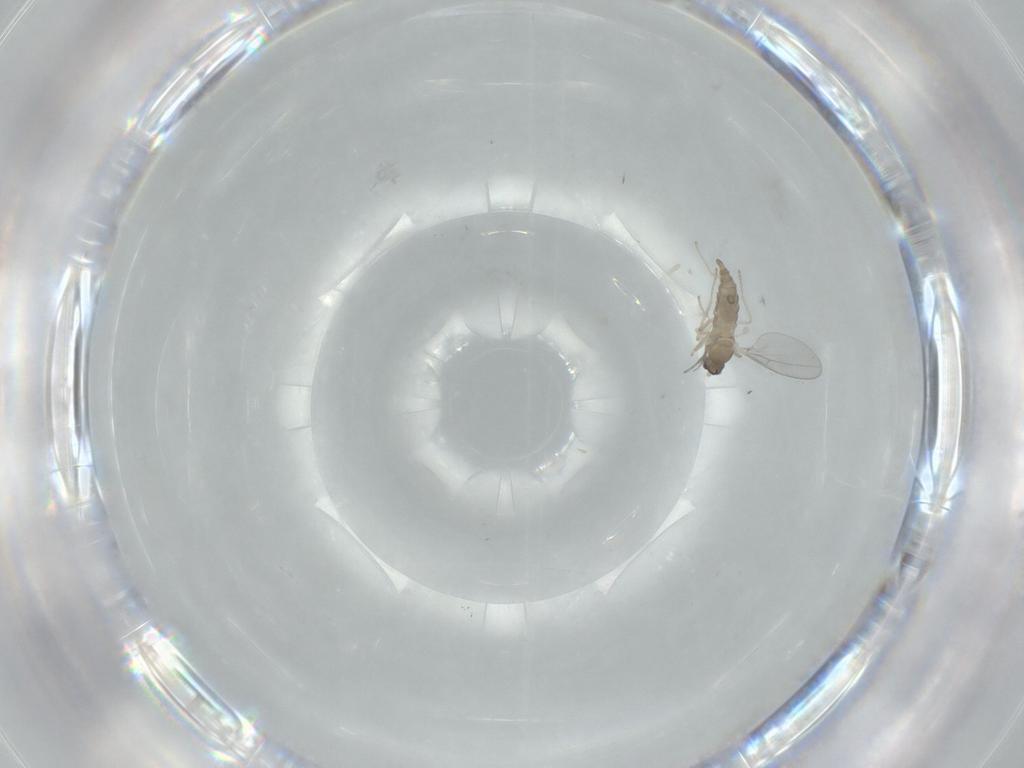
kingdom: Animalia
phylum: Arthropoda
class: Insecta
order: Diptera
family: Cecidomyiidae
